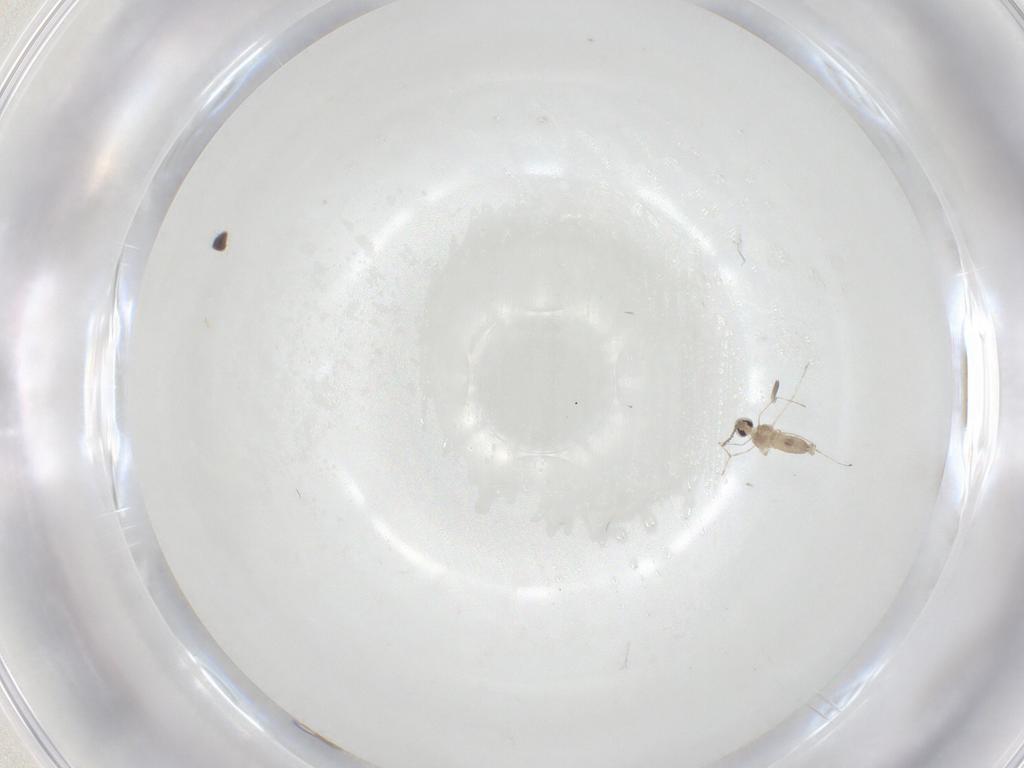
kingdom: Animalia
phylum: Arthropoda
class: Insecta
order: Diptera
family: Cecidomyiidae
